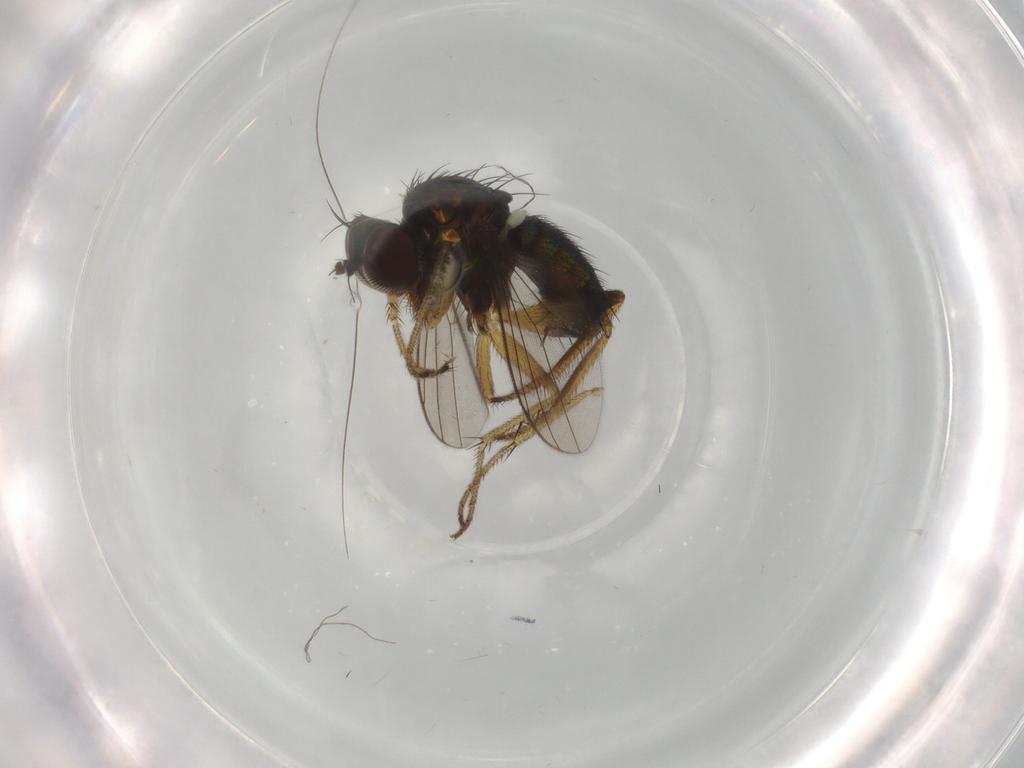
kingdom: Animalia
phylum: Arthropoda
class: Insecta
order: Diptera
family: Dolichopodidae
